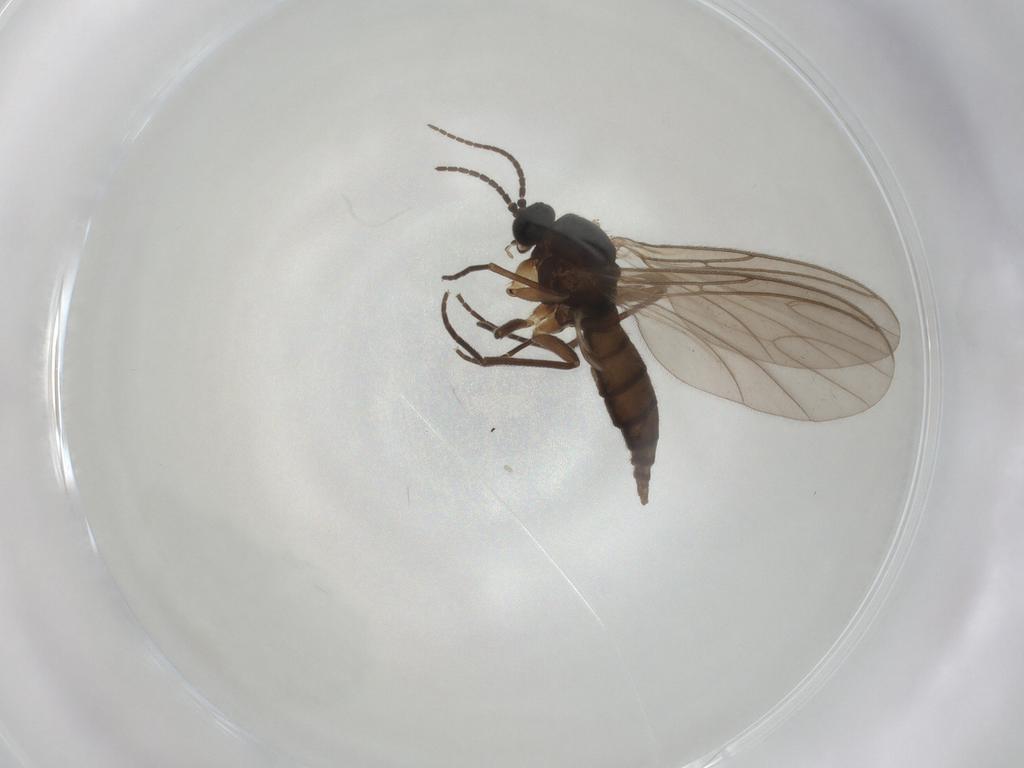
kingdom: Animalia
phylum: Arthropoda
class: Insecta
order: Diptera
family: Sciaridae
